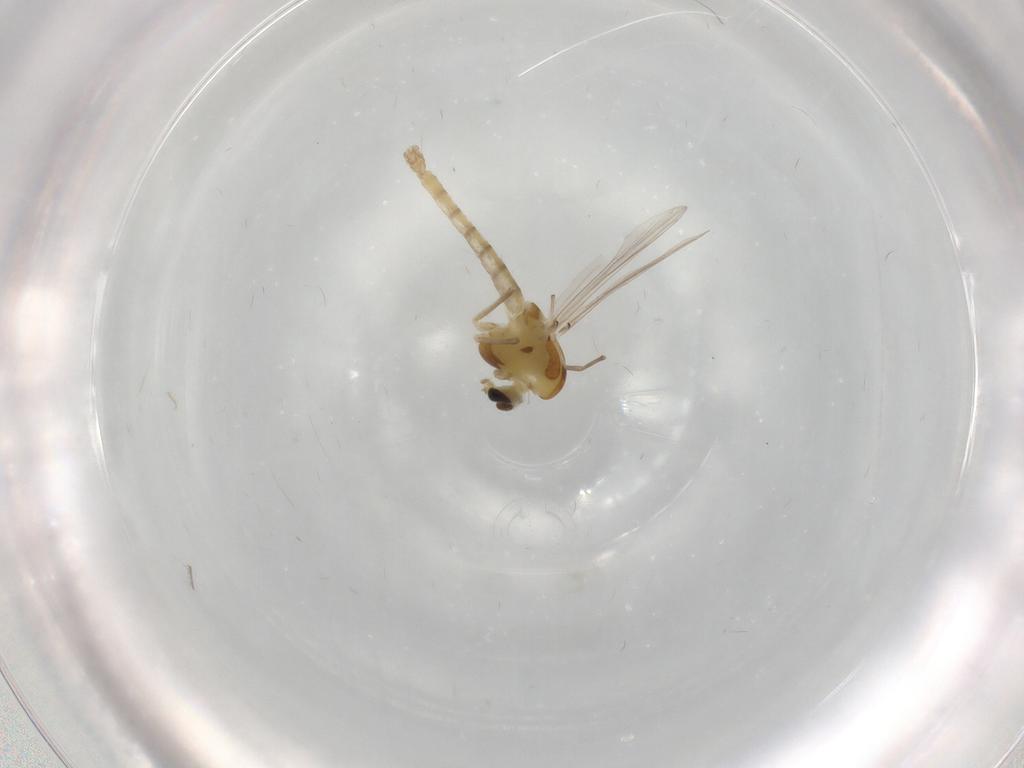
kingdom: Animalia
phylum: Arthropoda
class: Insecta
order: Diptera
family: Chironomidae
